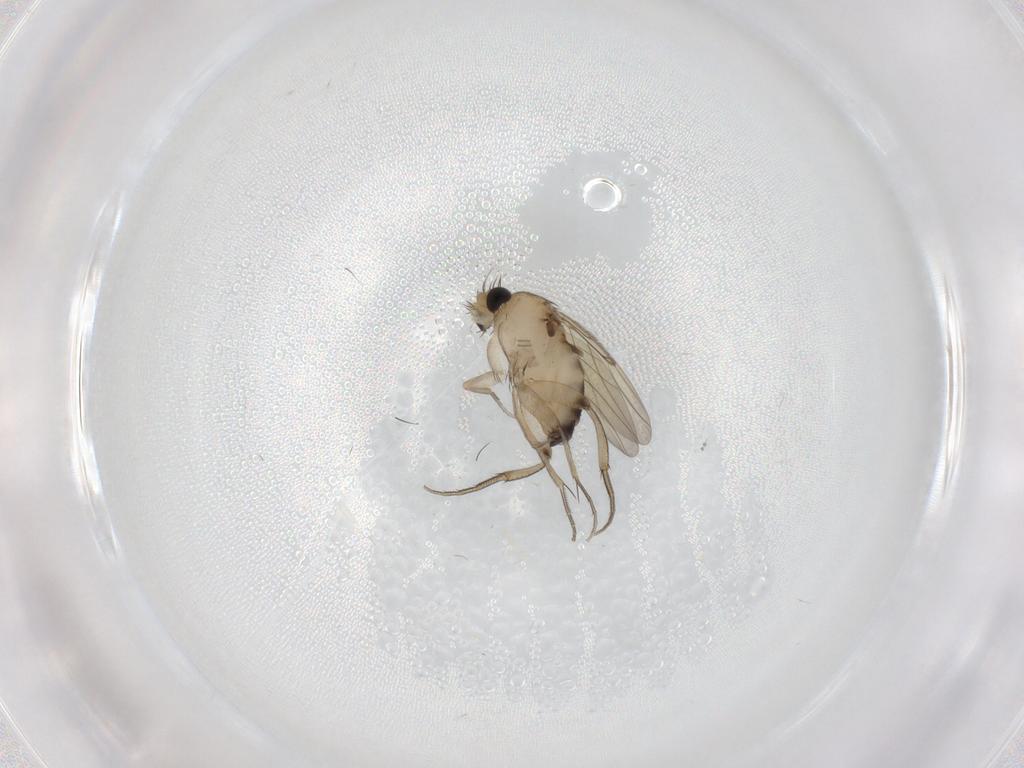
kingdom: Animalia
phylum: Arthropoda
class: Insecta
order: Diptera
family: Phoridae
